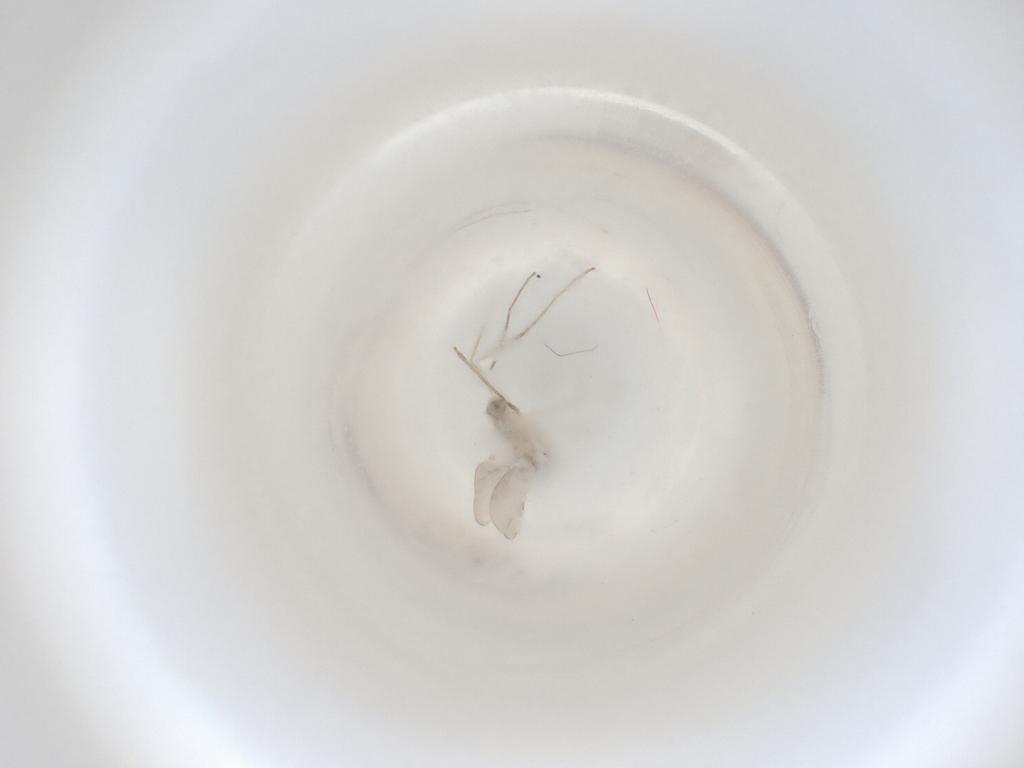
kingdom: Animalia
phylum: Arthropoda
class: Insecta
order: Diptera
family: Cecidomyiidae
